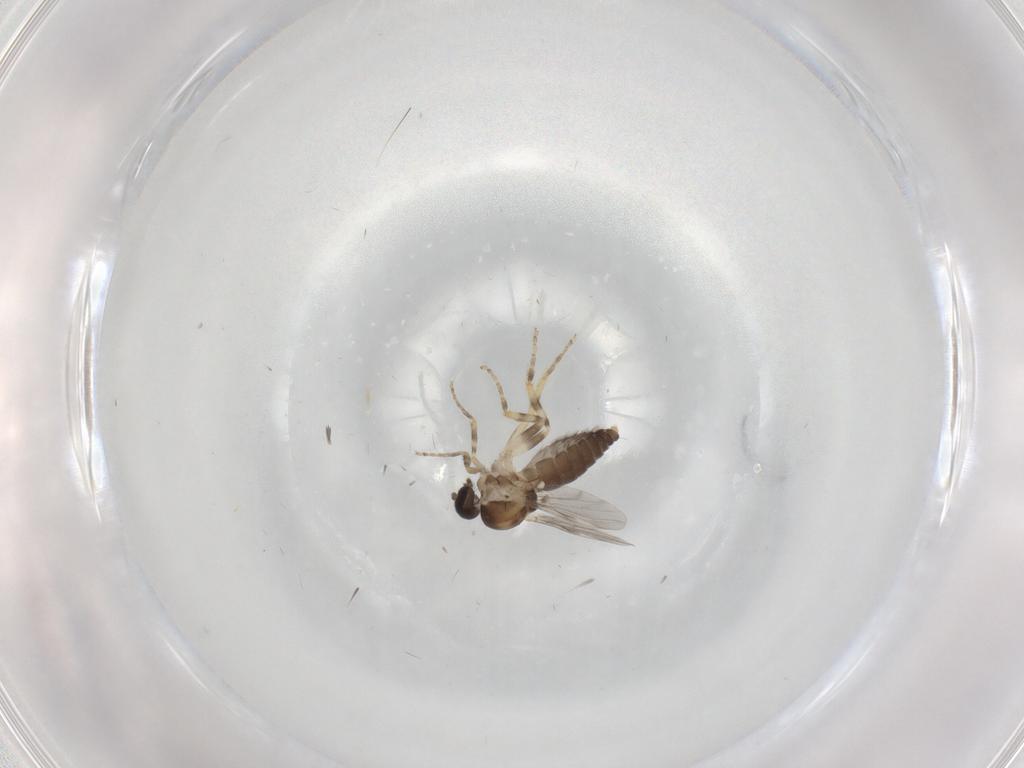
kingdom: Animalia
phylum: Arthropoda
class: Insecta
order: Diptera
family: Ceratopogonidae
